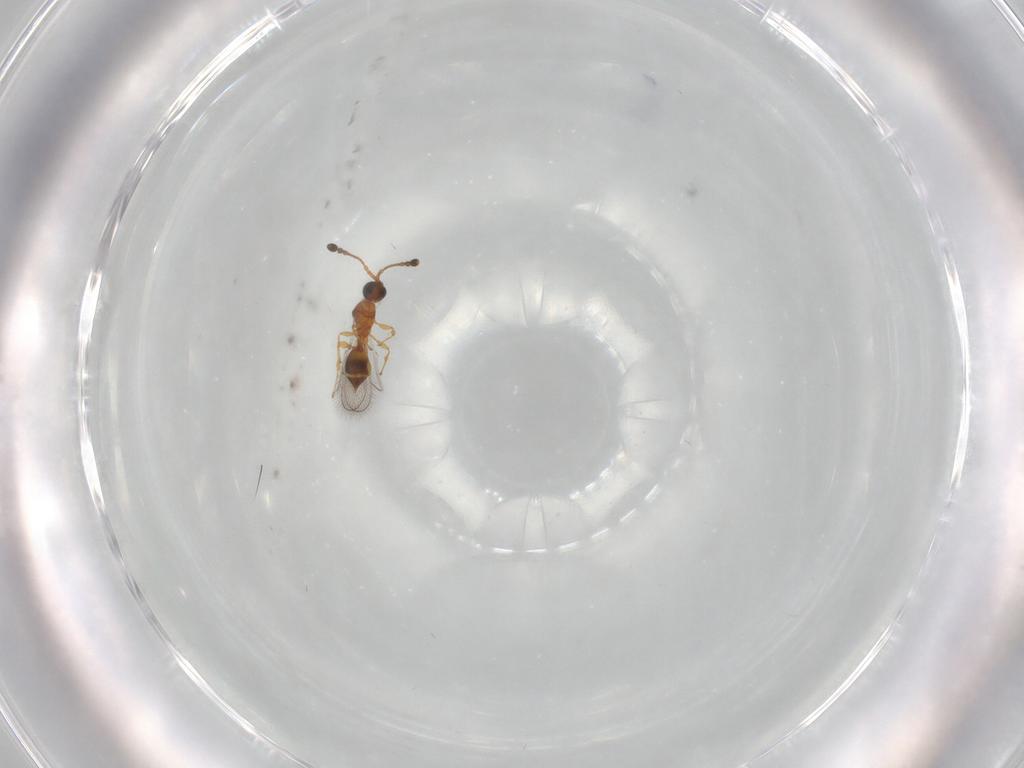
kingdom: Animalia
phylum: Arthropoda
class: Insecta
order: Hymenoptera
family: Diapriidae
